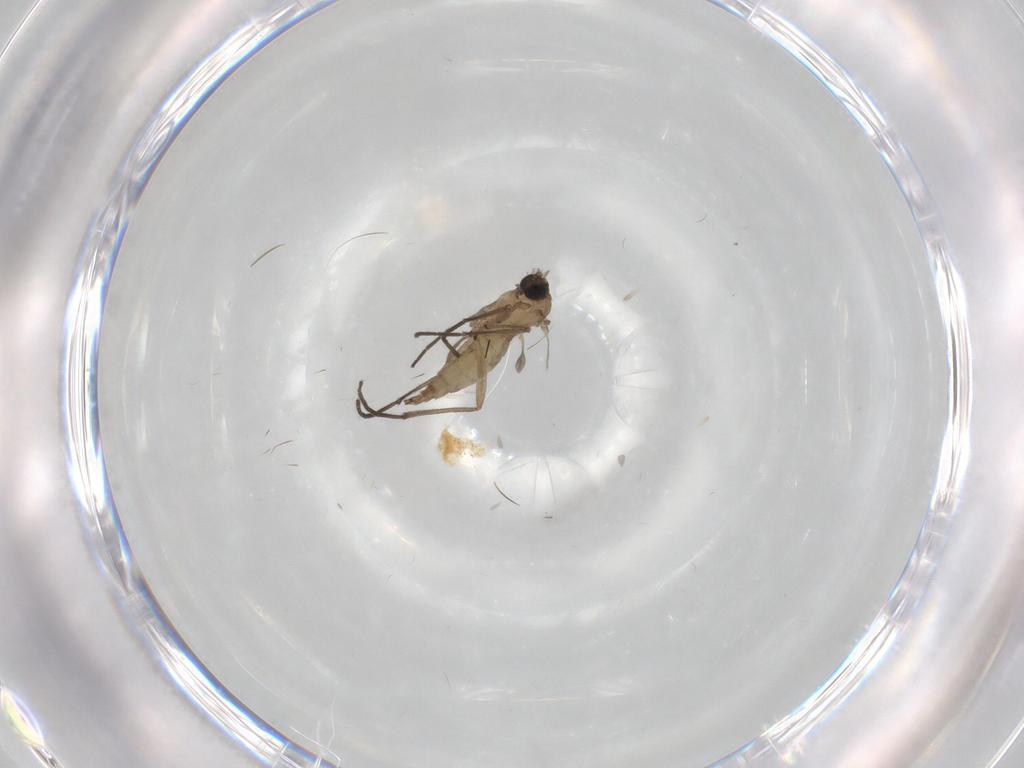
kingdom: Animalia
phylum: Arthropoda
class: Insecta
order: Diptera
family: Sciaridae
